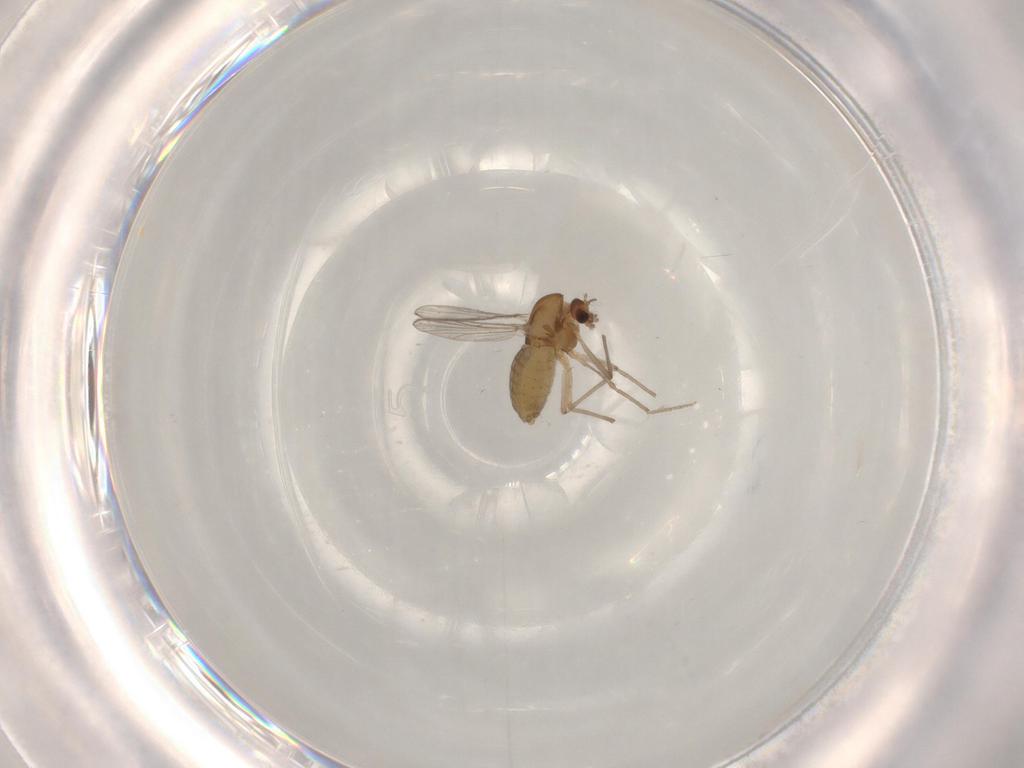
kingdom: Animalia
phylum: Arthropoda
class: Insecta
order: Diptera
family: Chironomidae
